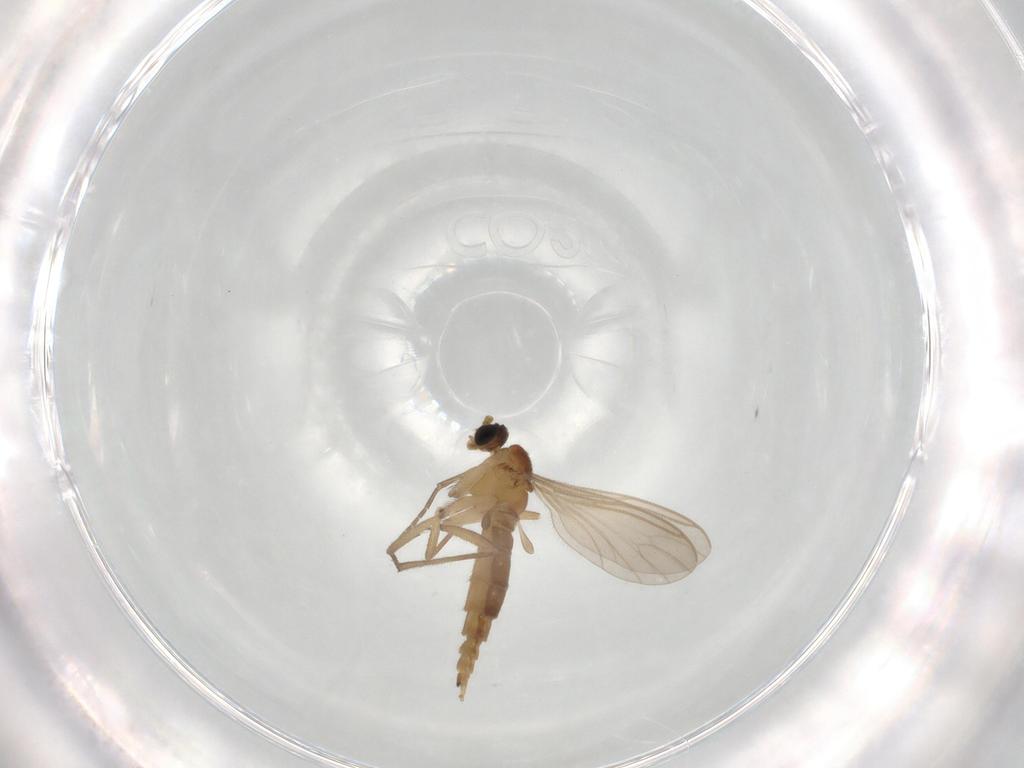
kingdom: Animalia
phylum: Arthropoda
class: Insecta
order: Diptera
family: Sciaridae
